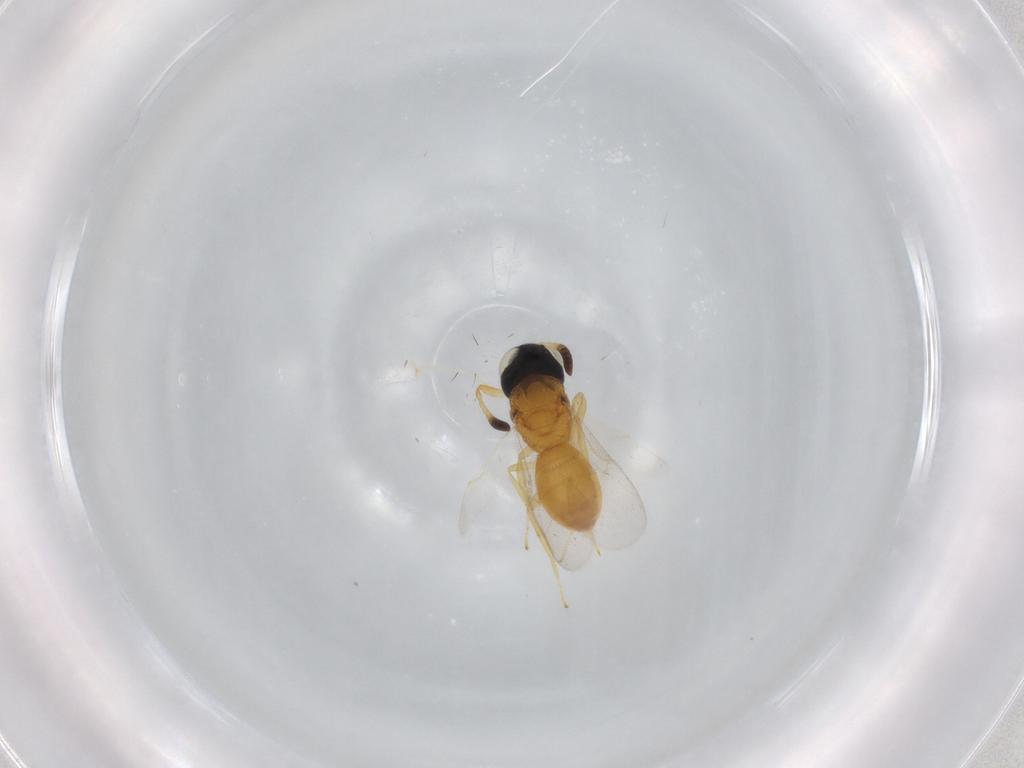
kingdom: Animalia
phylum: Arthropoda
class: Insecta
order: Hymenoptera
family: Scelionidae
